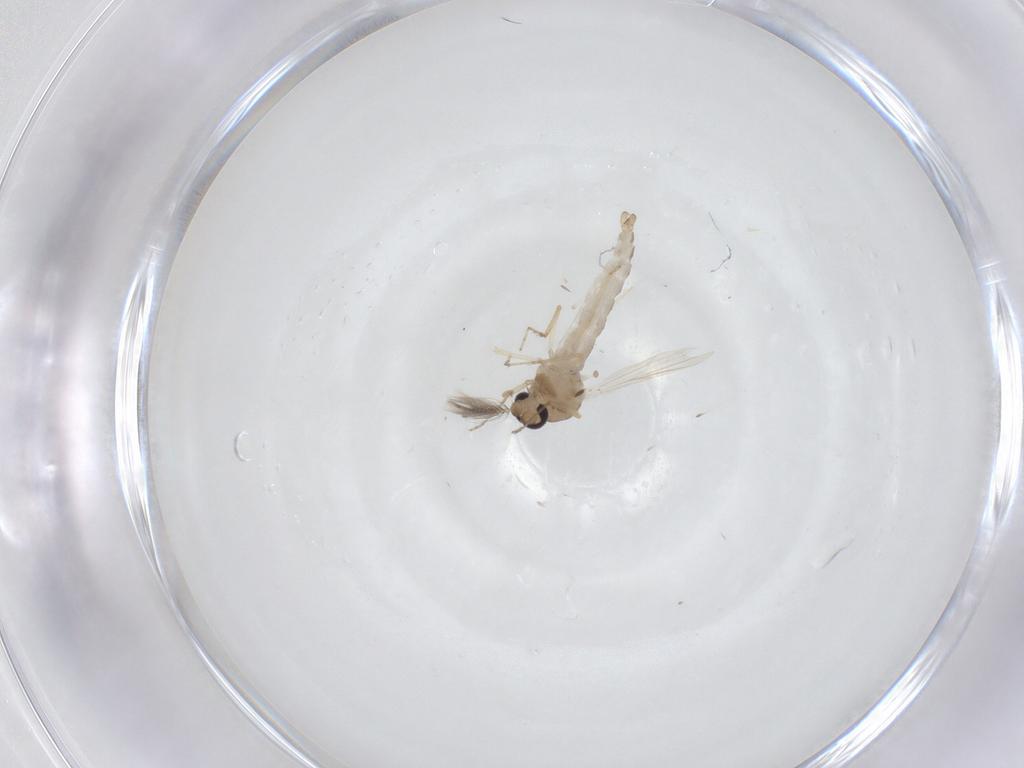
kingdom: Animalia
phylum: Arthropoda
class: Insecta
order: Diptera
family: Ceratopogonidae
